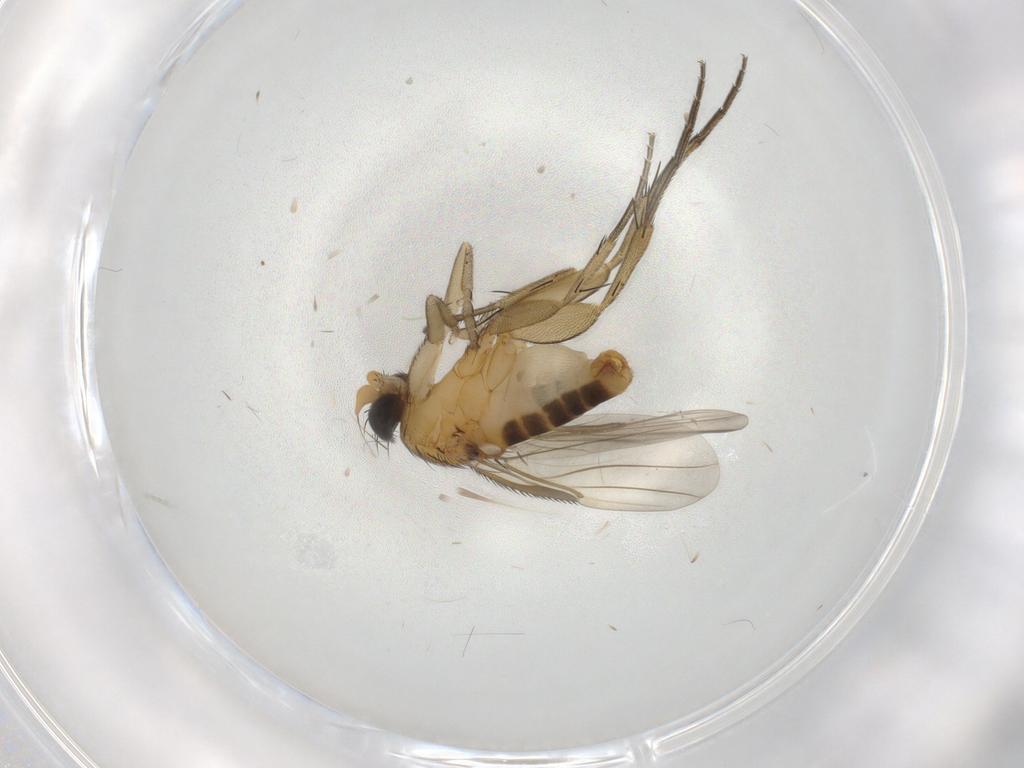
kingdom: Animalia
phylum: Arthropoda
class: Insecta
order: Diptera
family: Phoridae
